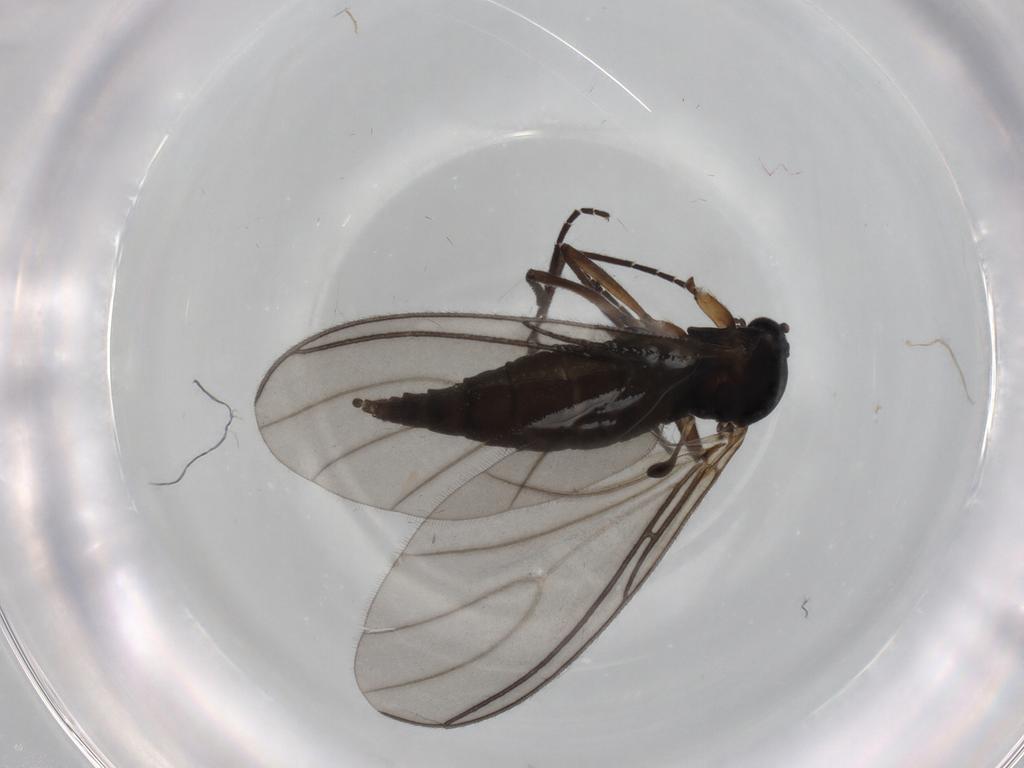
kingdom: Animalia
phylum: Arthropoda
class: Insecta
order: Diptera
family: Sciaridae
